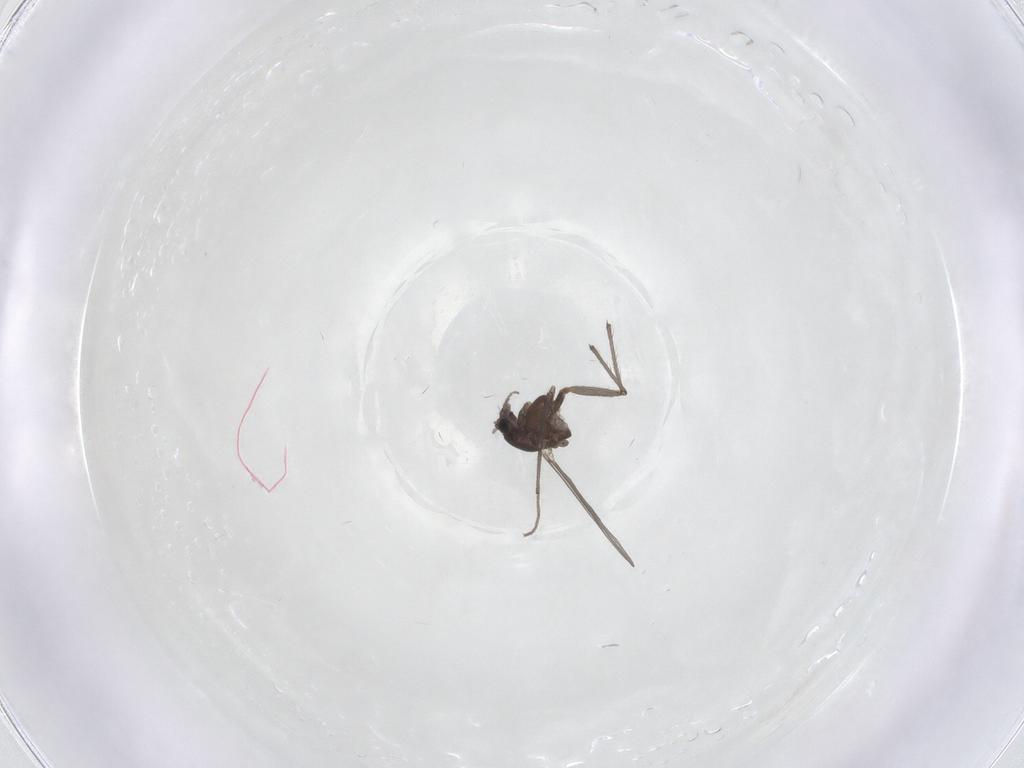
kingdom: Animalia
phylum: Arthropoda
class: Insecta
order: Diptera
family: Chironomidae
